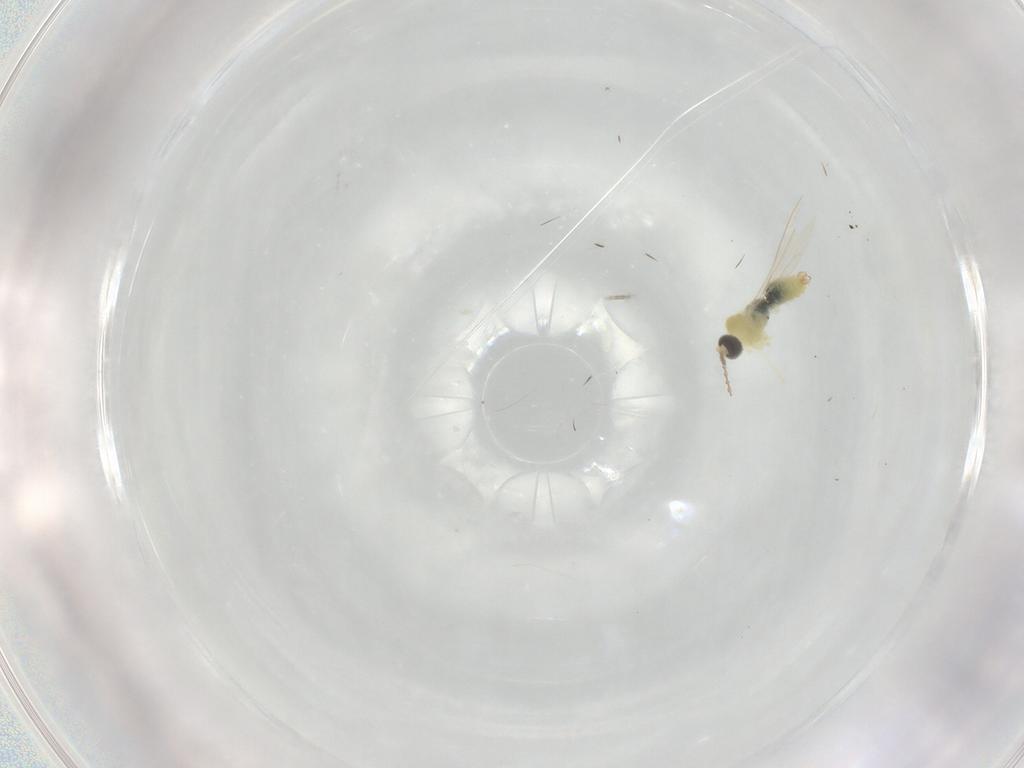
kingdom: Animalia
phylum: Arthropoda
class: Insecta
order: Diptera
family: Cecidomyiidae
